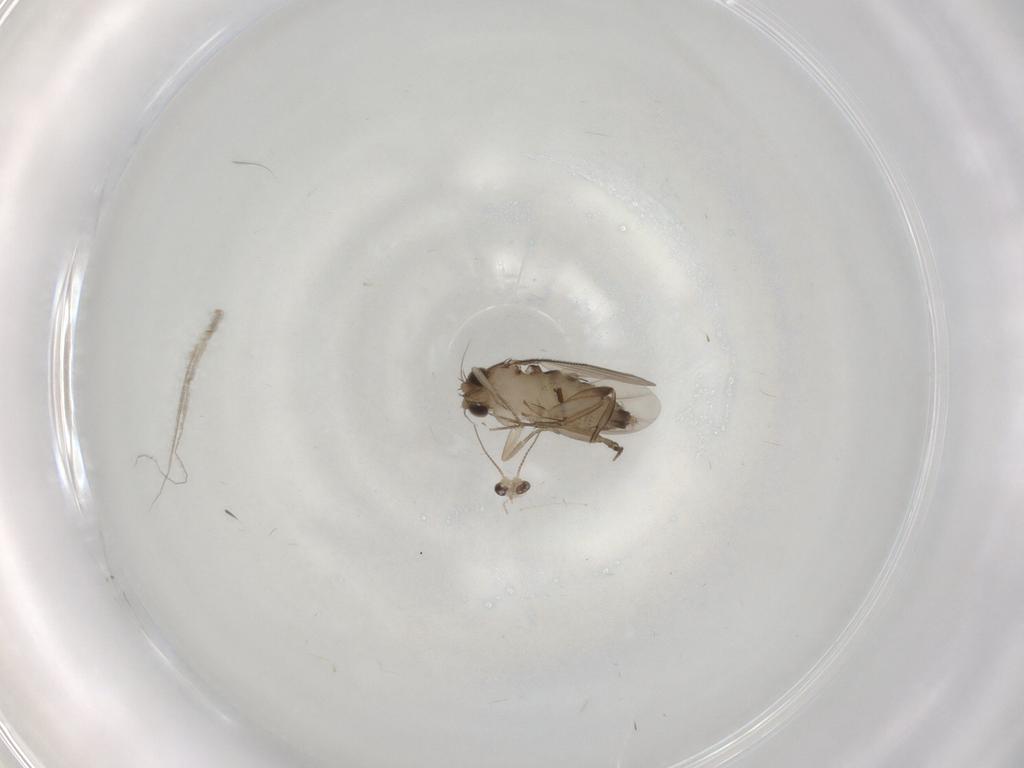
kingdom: Animalia
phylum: Arthropoda
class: Insecta
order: Diptera
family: Phoridae
